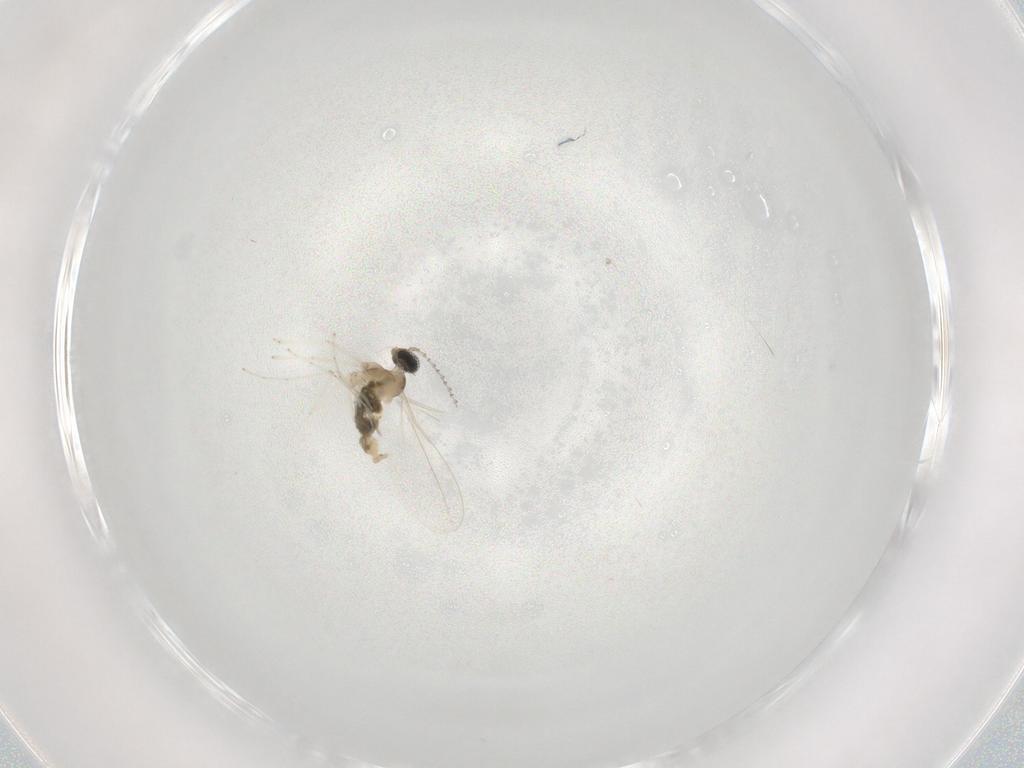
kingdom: Animalia
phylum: Arthropoda
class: Insecta
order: Diptera
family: Cecidomyiidae
